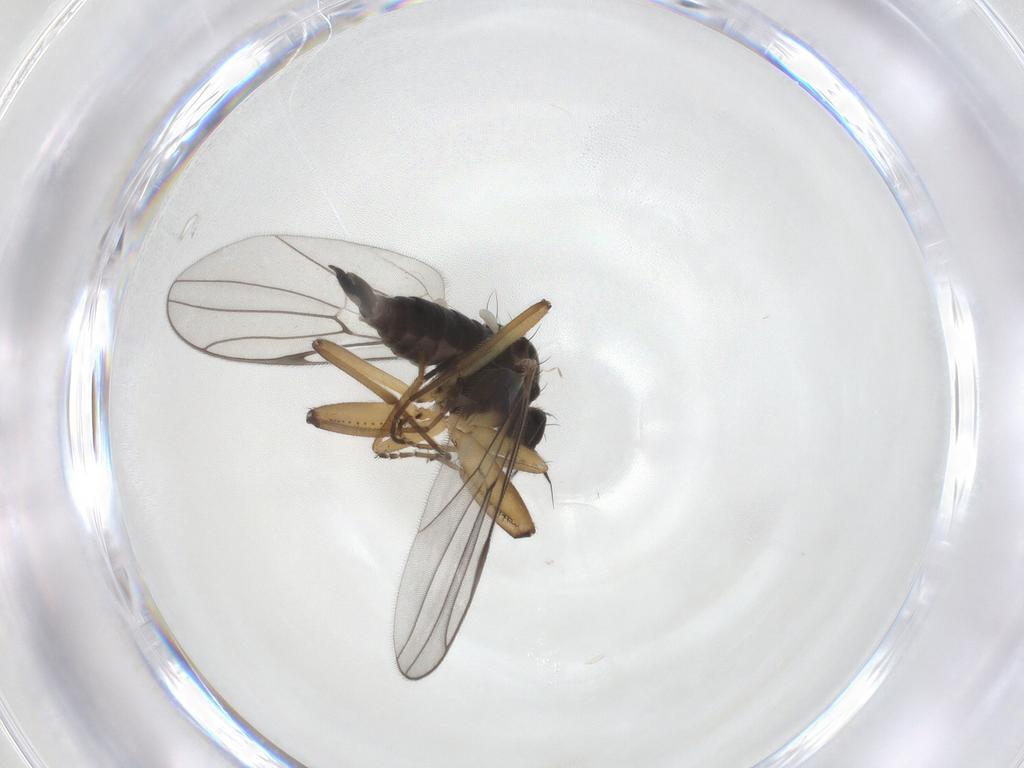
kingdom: Animalia
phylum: Arthropoda
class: Insecta
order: Diptera
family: Hybotidae
